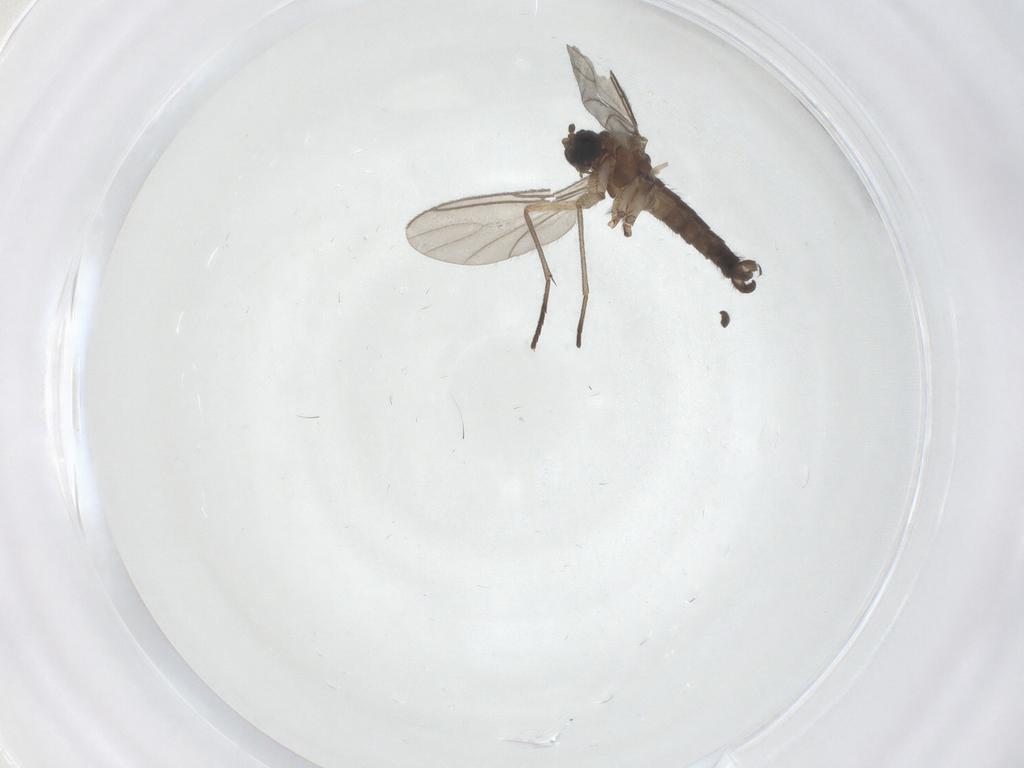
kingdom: Animalia
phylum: Arthropoda
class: Insecta
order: Diptera
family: Sciaridae
